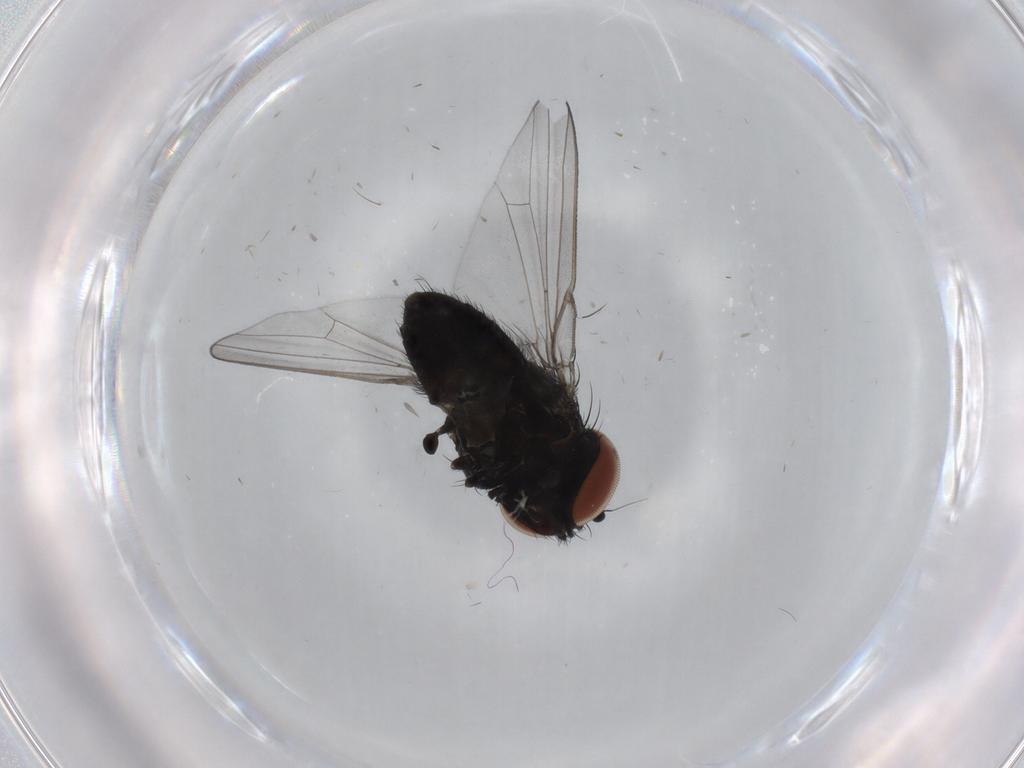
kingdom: Animalia
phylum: Arthropoda
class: Insecta
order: Diptera
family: Milichiidae
